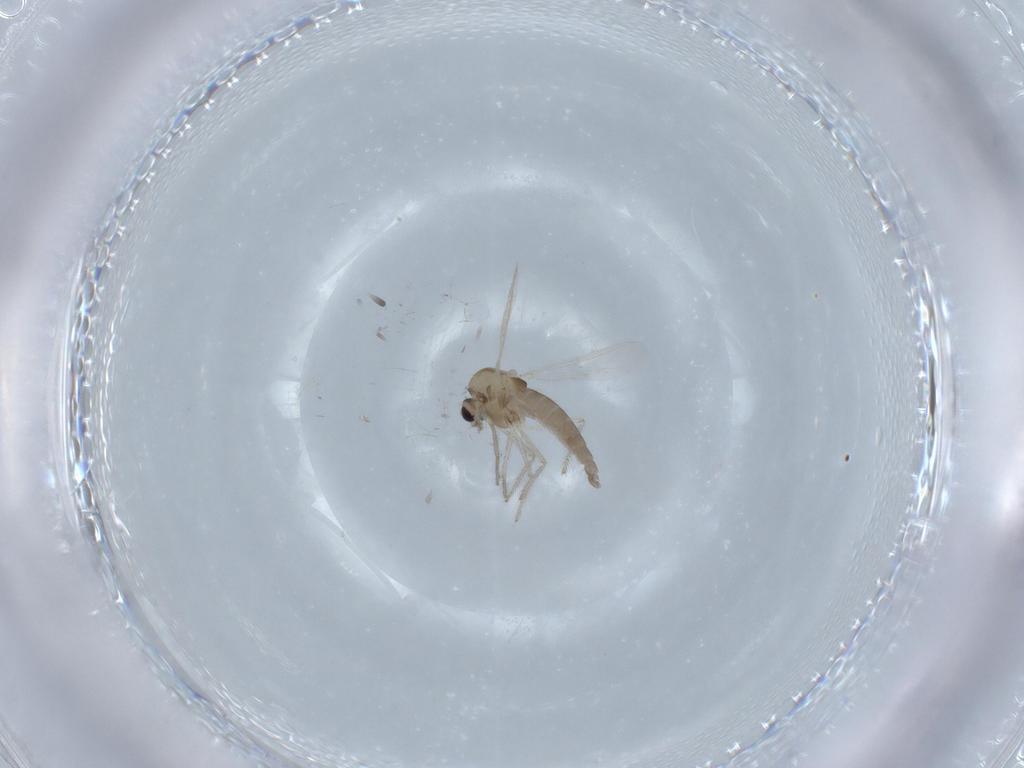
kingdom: Animalia
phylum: Arthropoda
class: Insecta
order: Diptera
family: Chironomidae
